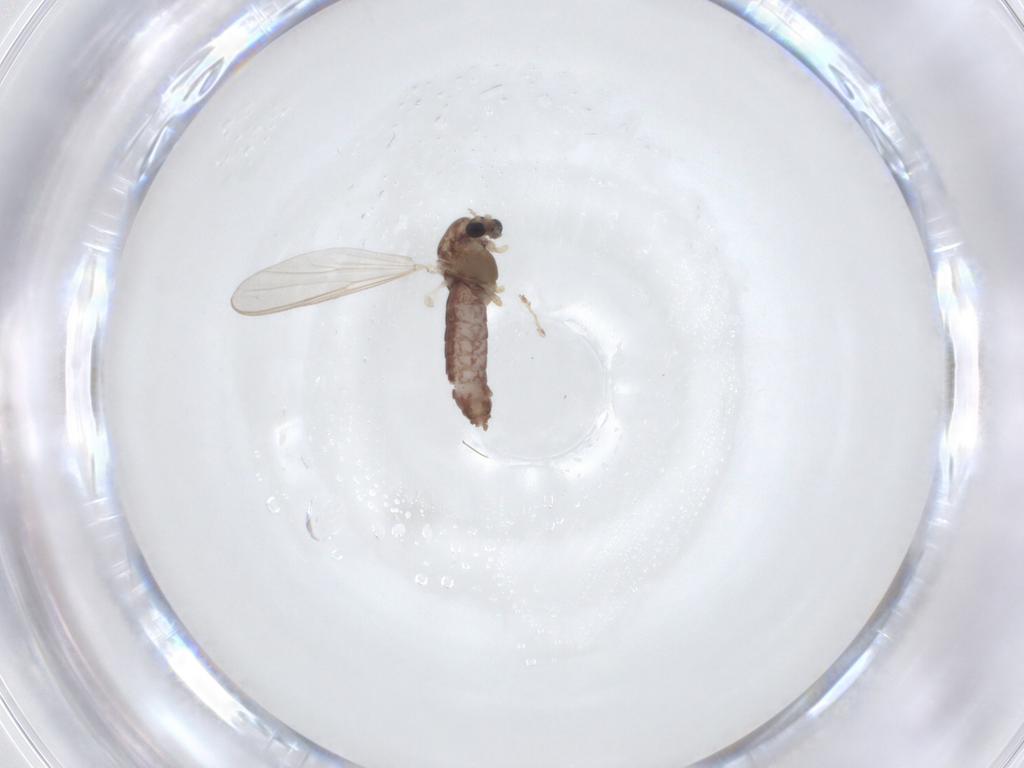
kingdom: Animalia
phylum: Arthropoda
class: Insecta
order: Diptera
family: Chironomidae
